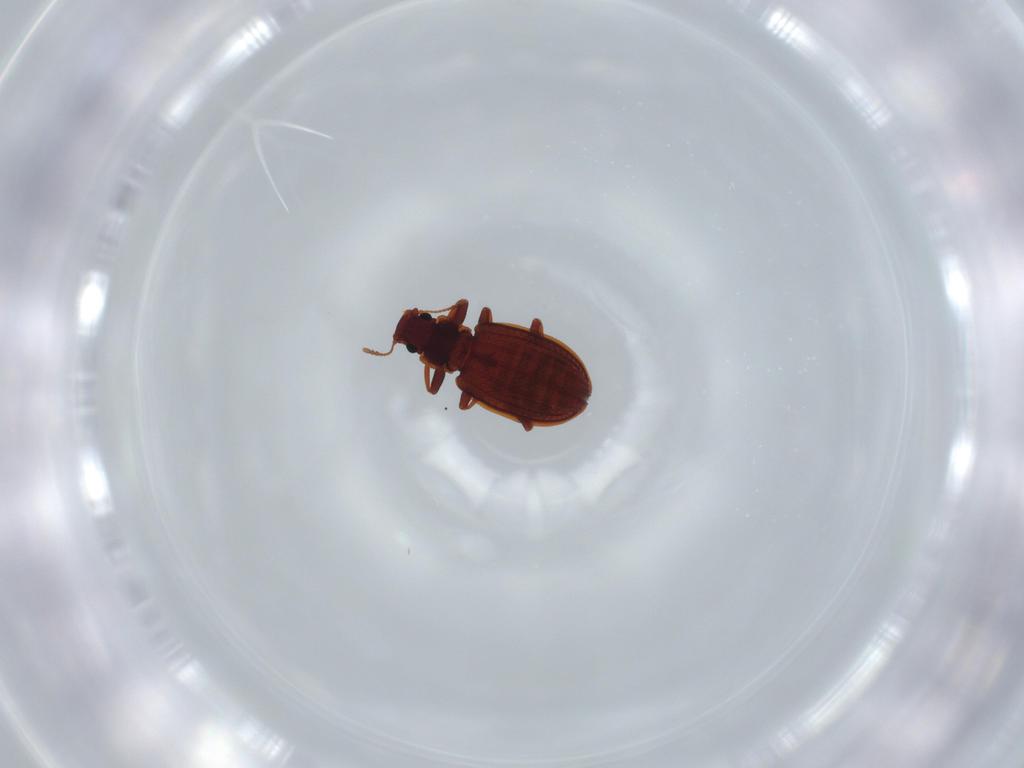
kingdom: Animalia
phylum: Arthropoda
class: Insecta
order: Coleoptera
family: Latridiidae
